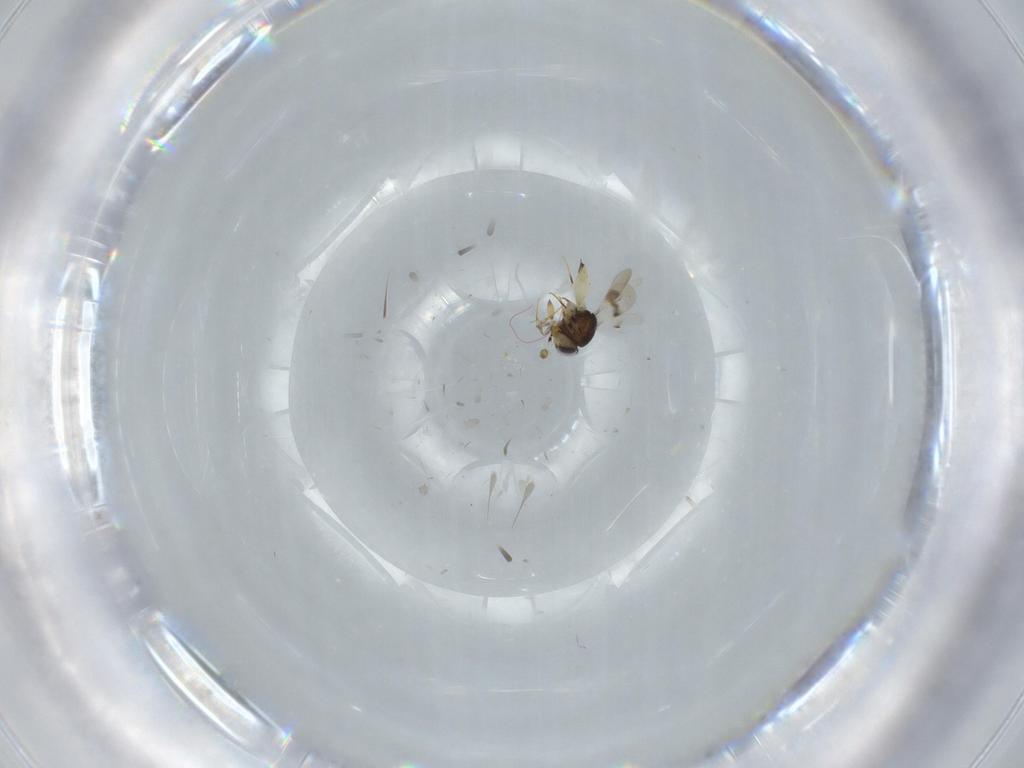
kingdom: Animalia
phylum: Arthropoda
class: Insecta
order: Hymenoptera
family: Scelionidae
